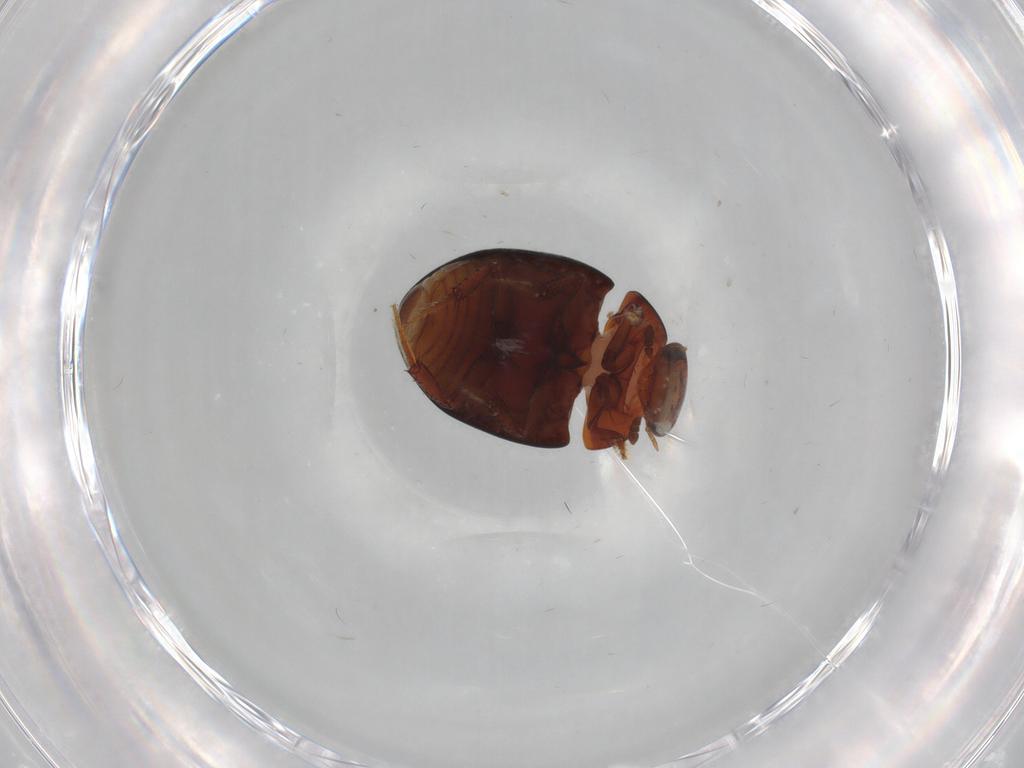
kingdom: Animalia
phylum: Arthropoda
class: Insecta
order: Coleoptera
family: Hydrophilidae
